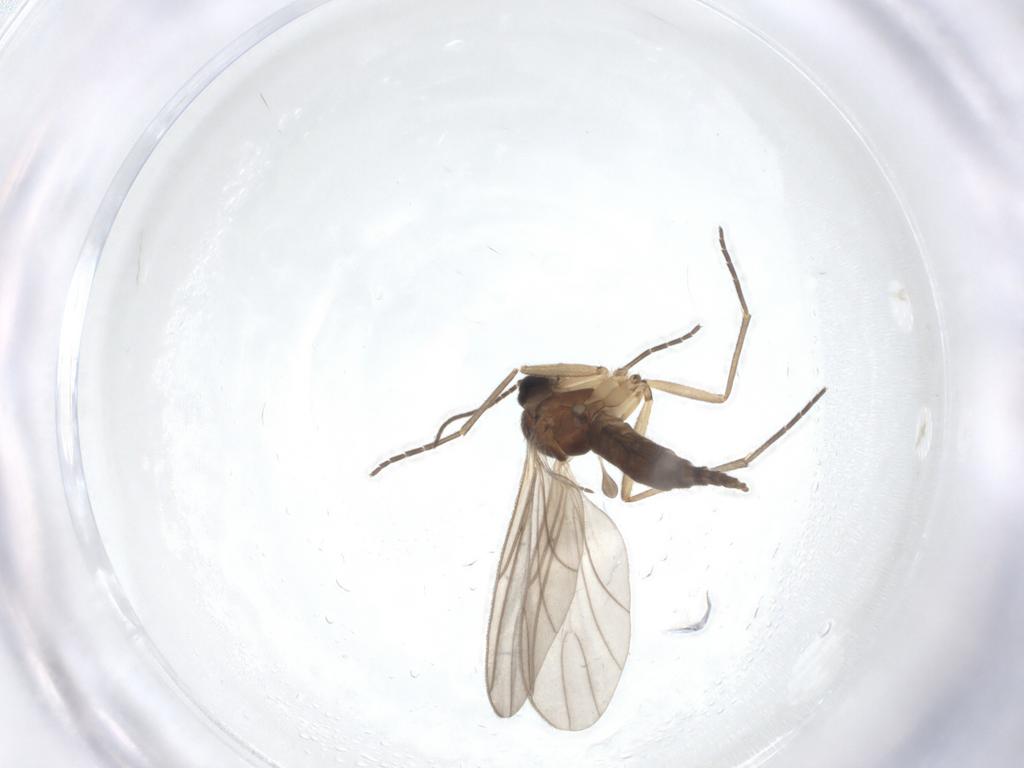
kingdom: Animalia
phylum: Arthropoda
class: Insecta
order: Diptera
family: Sciaridae
